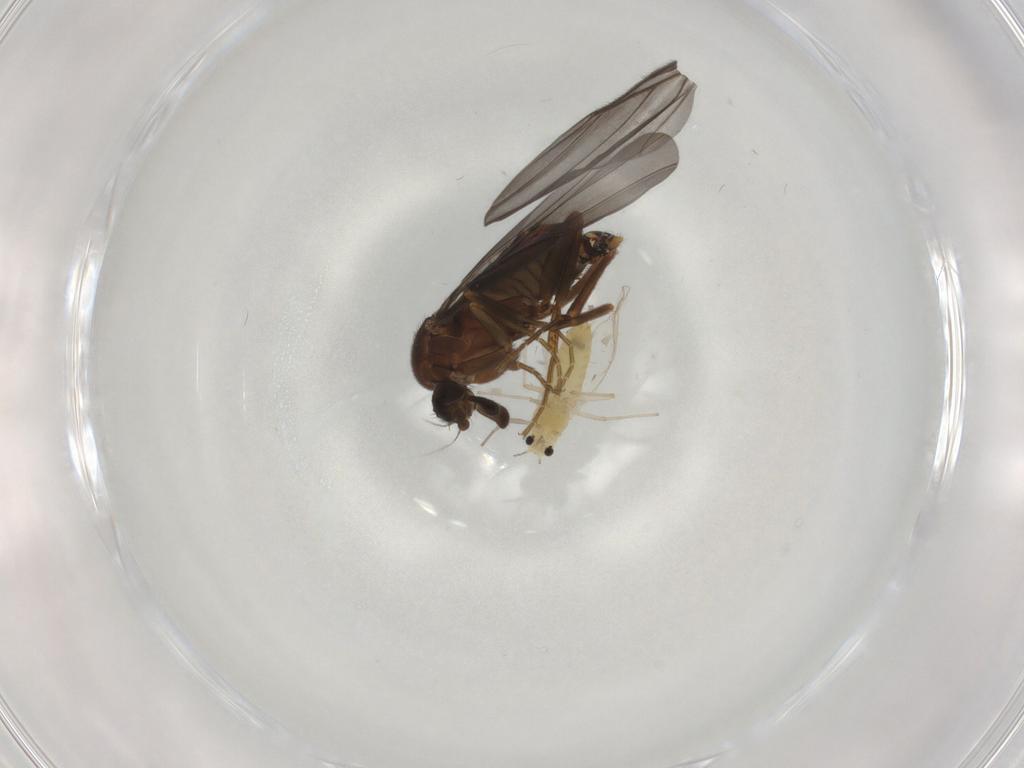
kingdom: Animalia
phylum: Arthropoda
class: Insecta
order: Diptera
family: Chironomidae
